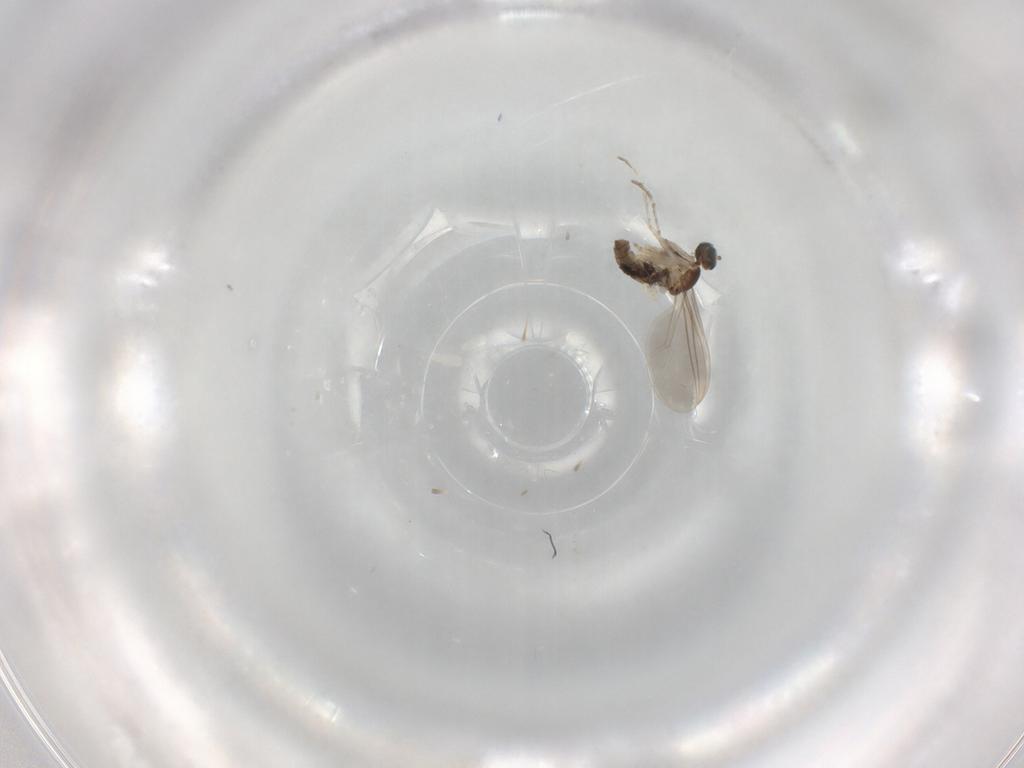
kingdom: Animalia
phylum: Arthropoda
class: Insecta
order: Diptera
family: Cecidomyiidae
